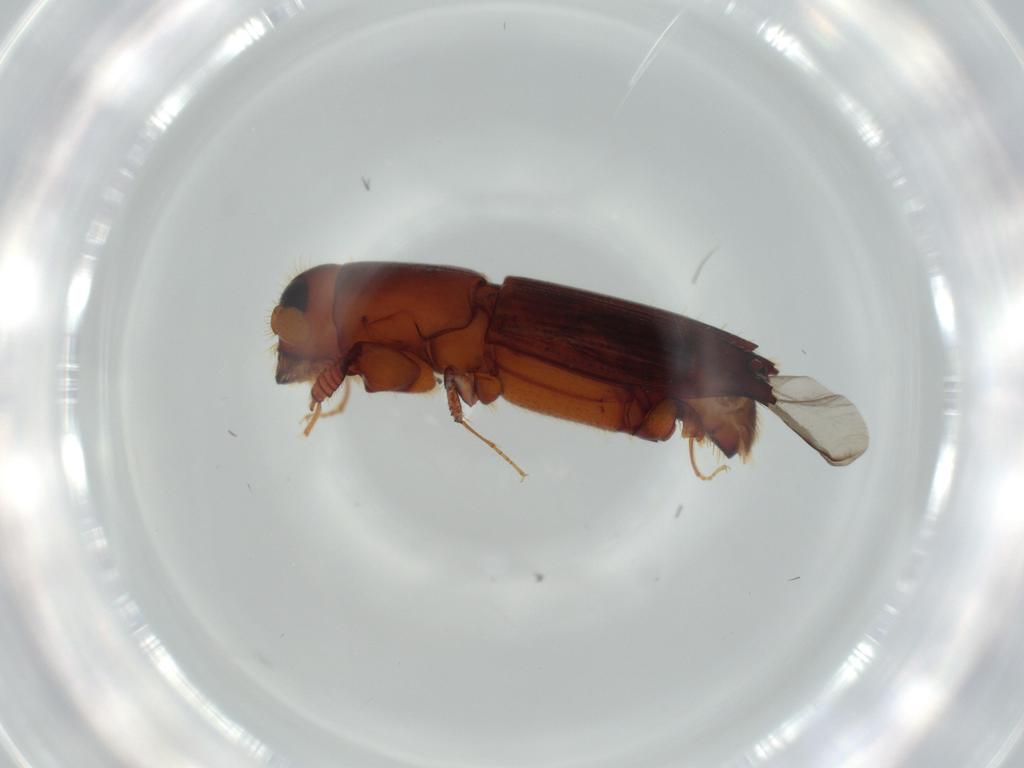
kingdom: Animalia
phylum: Arthropoda
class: Insecta
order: Coleoptera
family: Curculionidae
